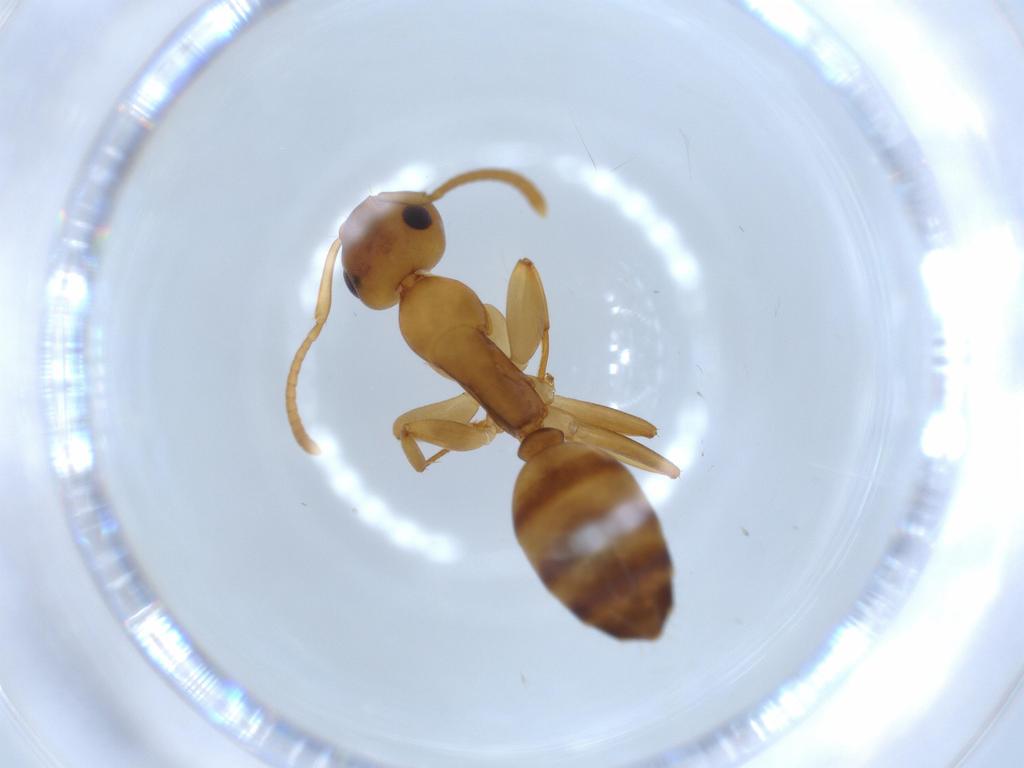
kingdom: Animalia
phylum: Arthropoda
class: Insecta
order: Hymenoptera
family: Formicidae
